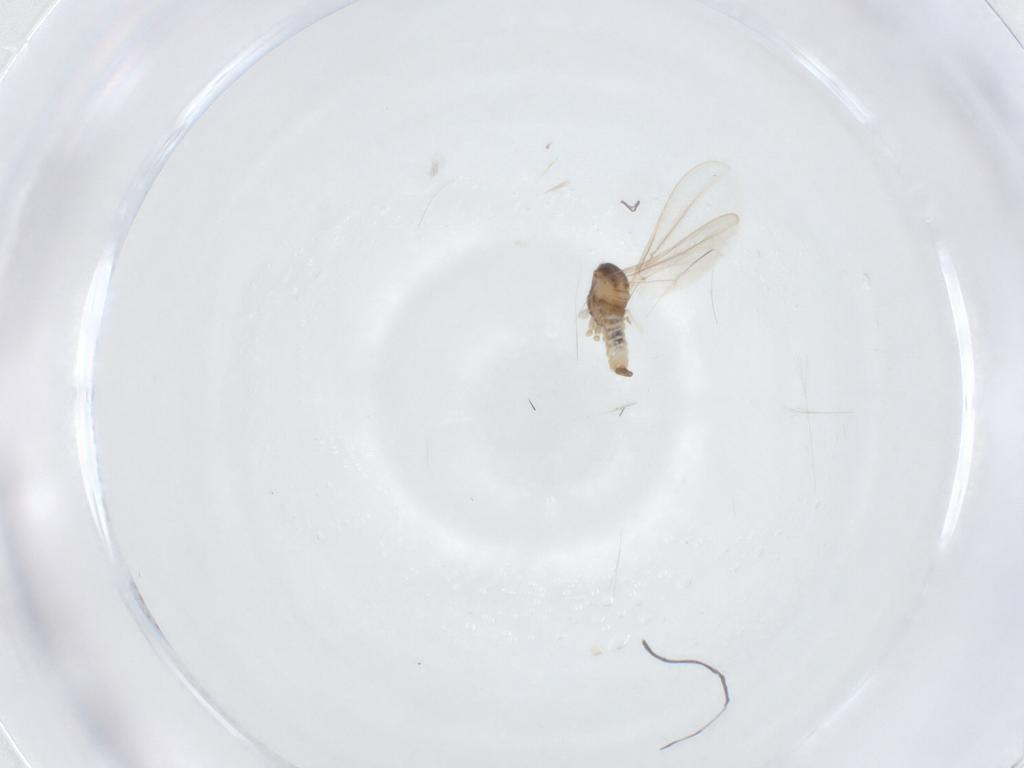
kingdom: Animalia
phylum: Arthropoda
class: Insecta
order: Diptera
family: Cecidomyiidae
